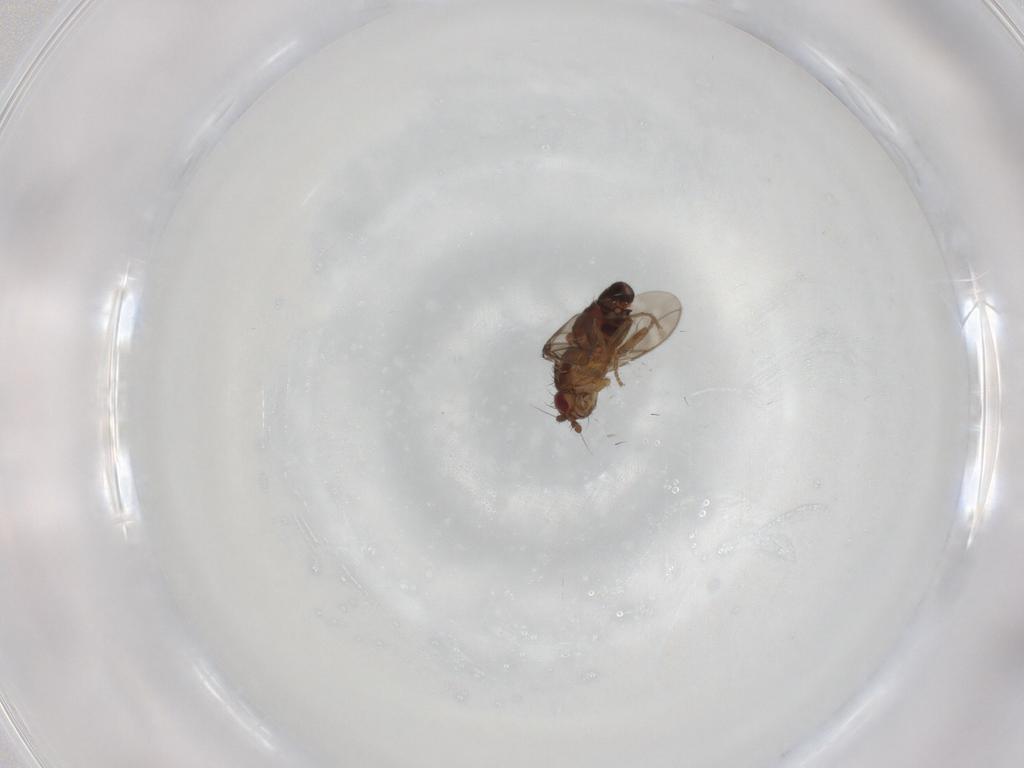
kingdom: Animalia
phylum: Arthropoda
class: Insecta
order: Diptera
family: Sphaeroceridae
